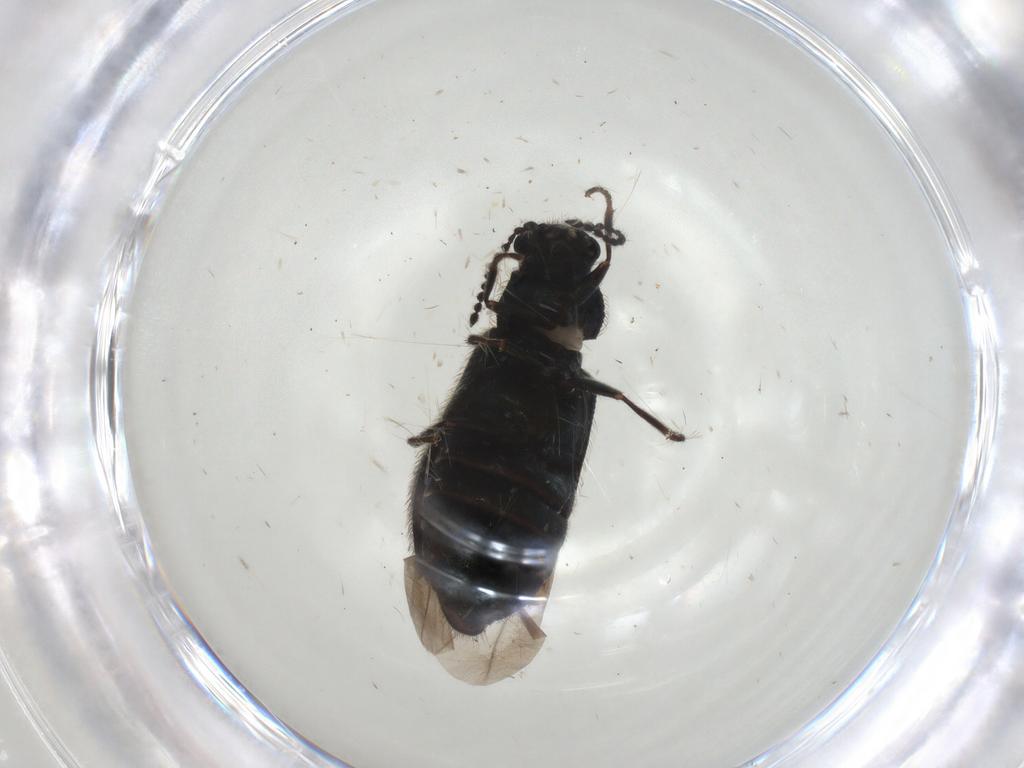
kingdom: Animalia
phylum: Arthropoda
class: Insecta
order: Coleoptera
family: Melyridae
